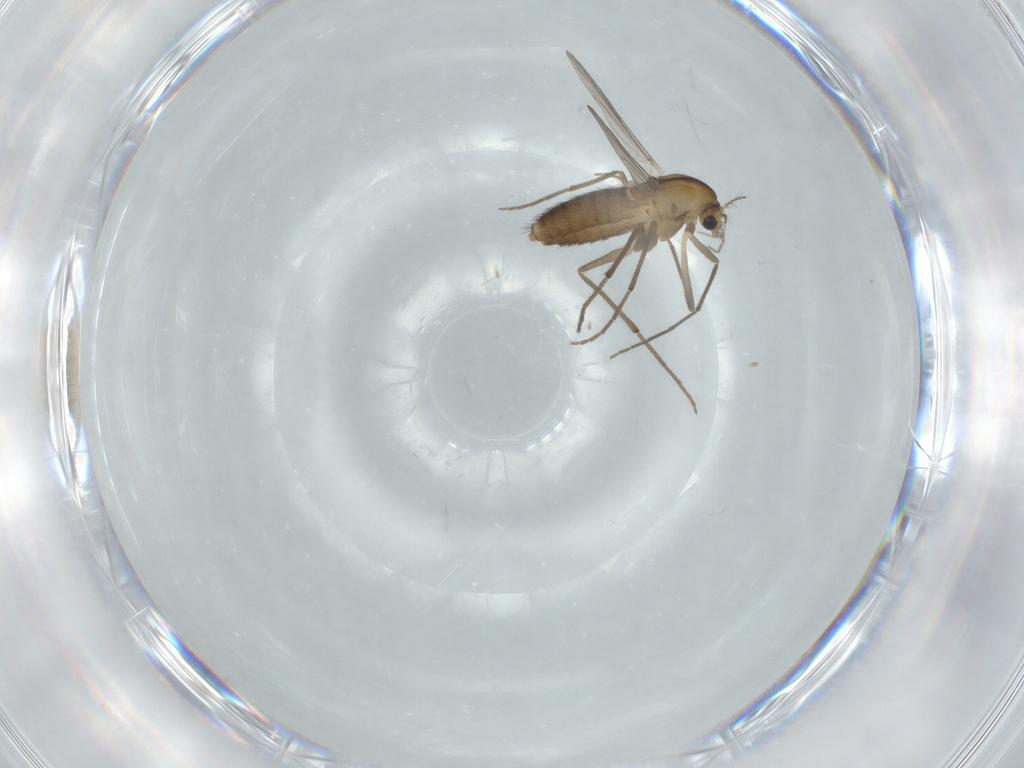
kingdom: Animalia
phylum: Arthropoda
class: Insecta
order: Diptera
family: Chironomidae
